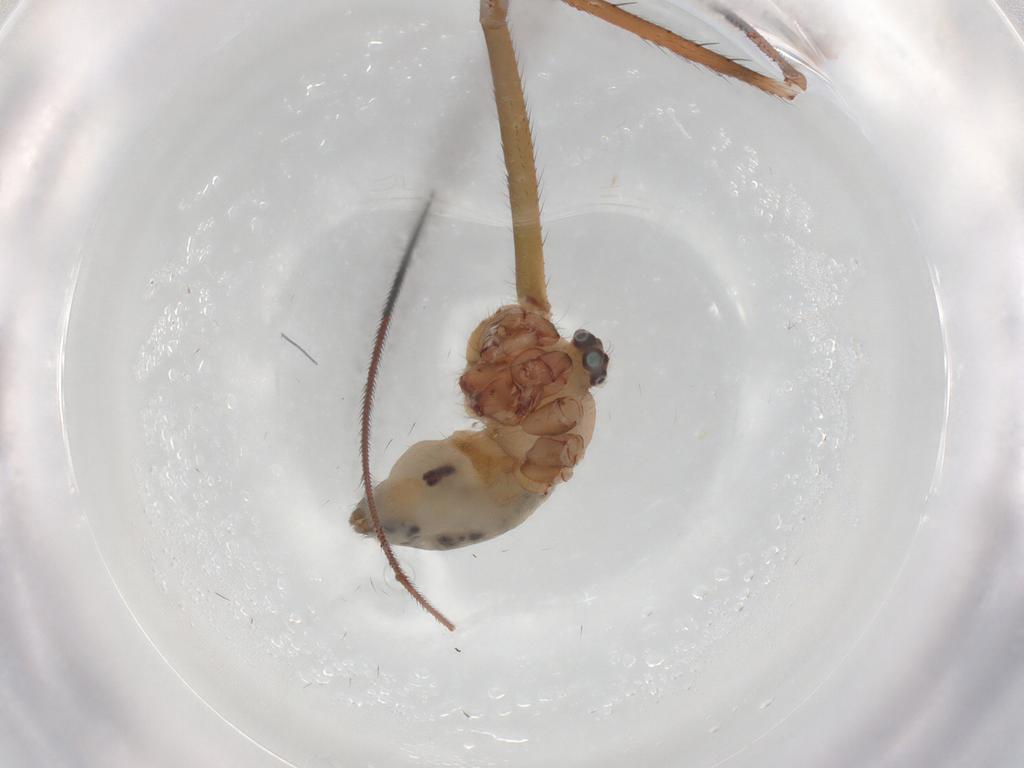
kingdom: Animalia
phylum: Arthropoda
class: Arachnida
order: Araneae
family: Pholcidae
